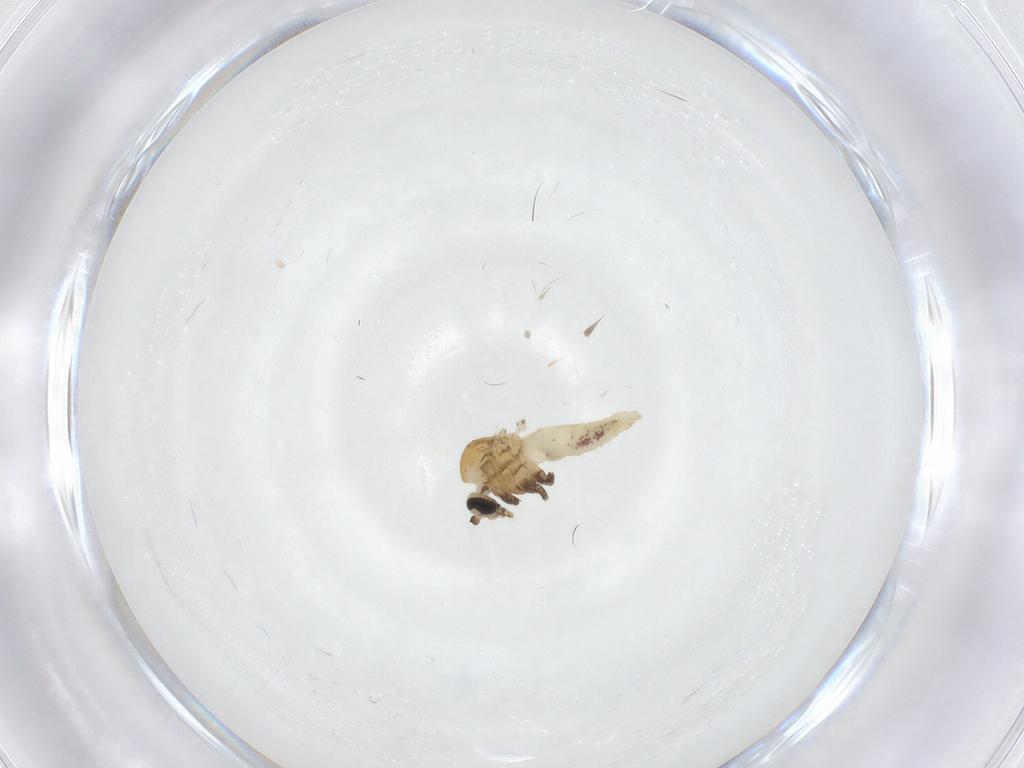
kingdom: Animalia
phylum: Arthropoda
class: Insecta
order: Diptera
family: Ceratopogonidae
